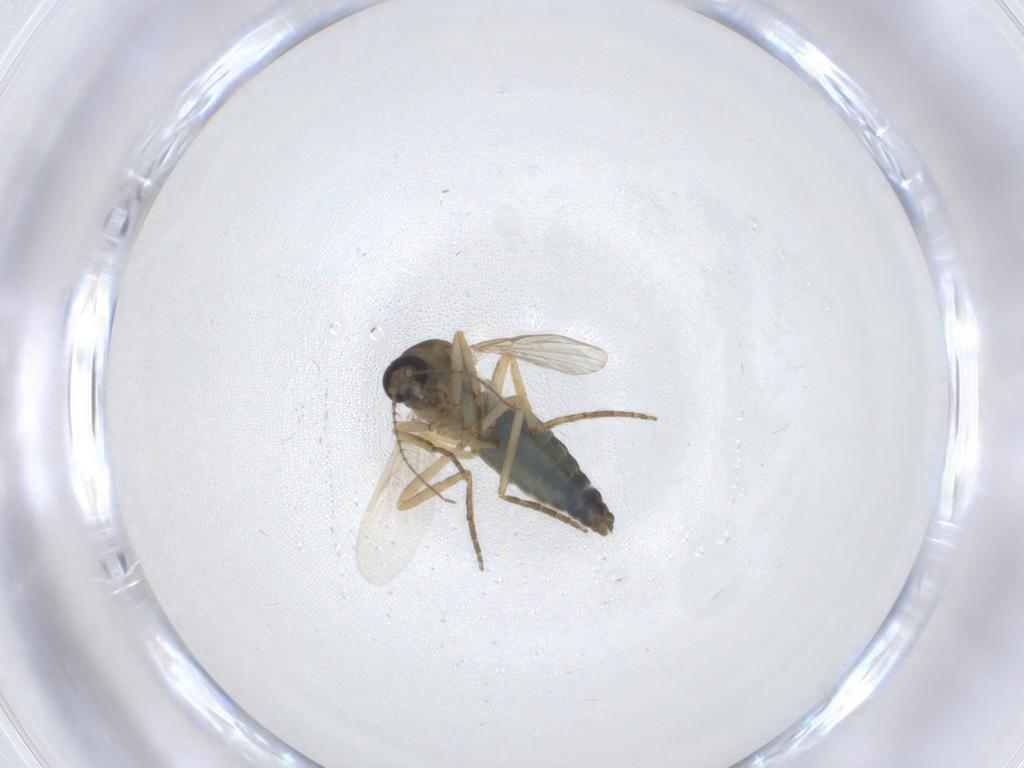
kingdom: Animalia
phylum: Arthropoda
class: Insecta
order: Diptera
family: Ceratopogonidae
